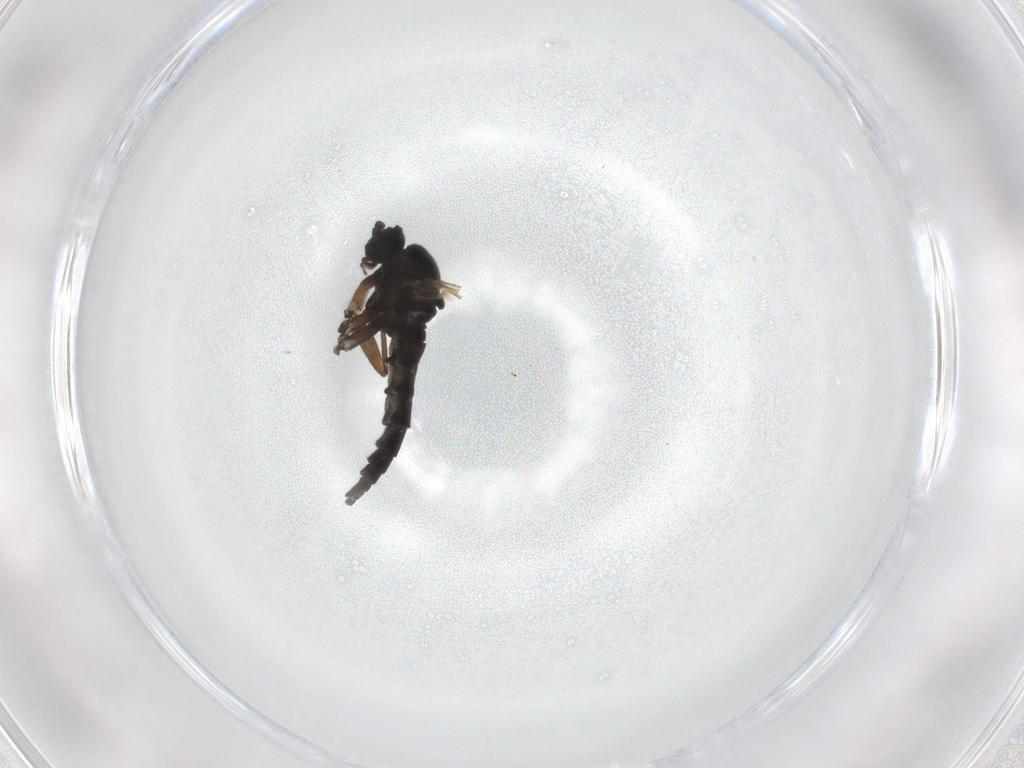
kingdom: Animalia
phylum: Arthropoda
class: Insecta
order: Diptera
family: Sciaridae
